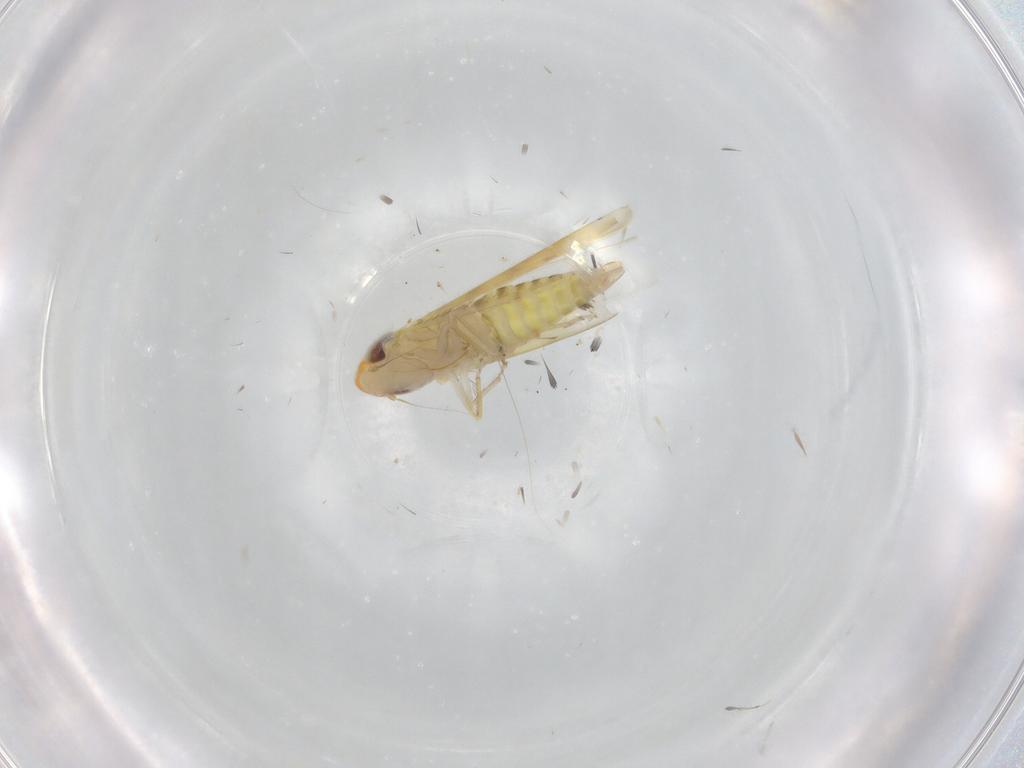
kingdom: Animalia
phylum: Arthropoda
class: Insecta
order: Hemiptera
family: Cicadellidae
